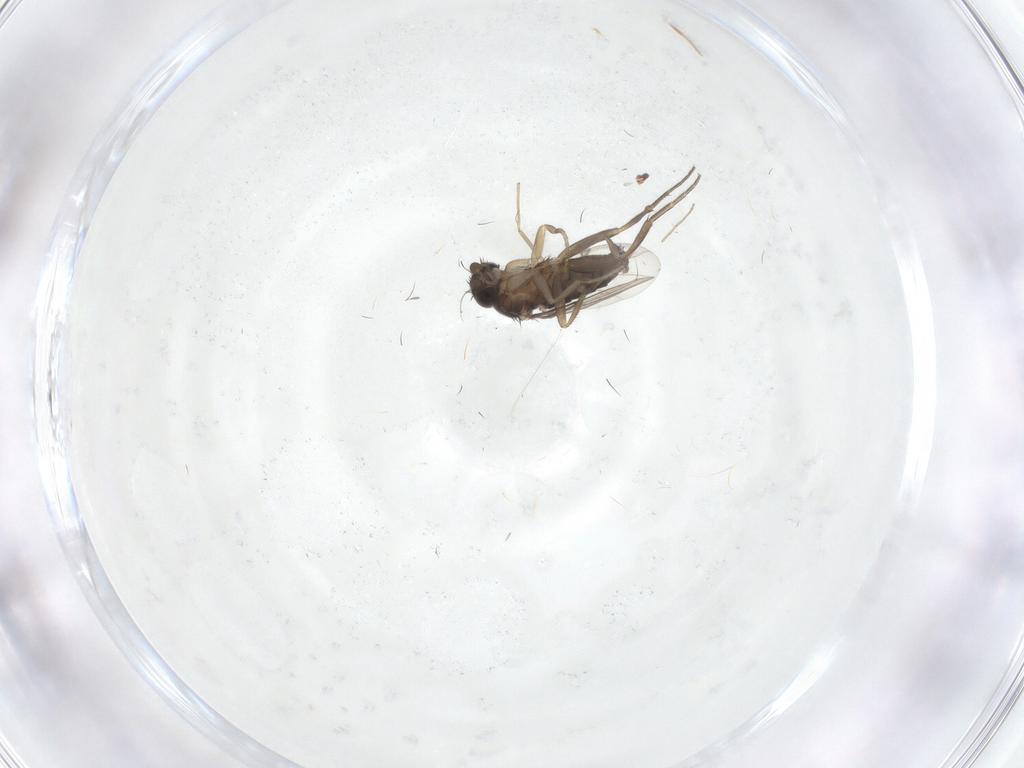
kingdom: Animalia
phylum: Arthropoda
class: Insecta
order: Diptera
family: Phoridae
